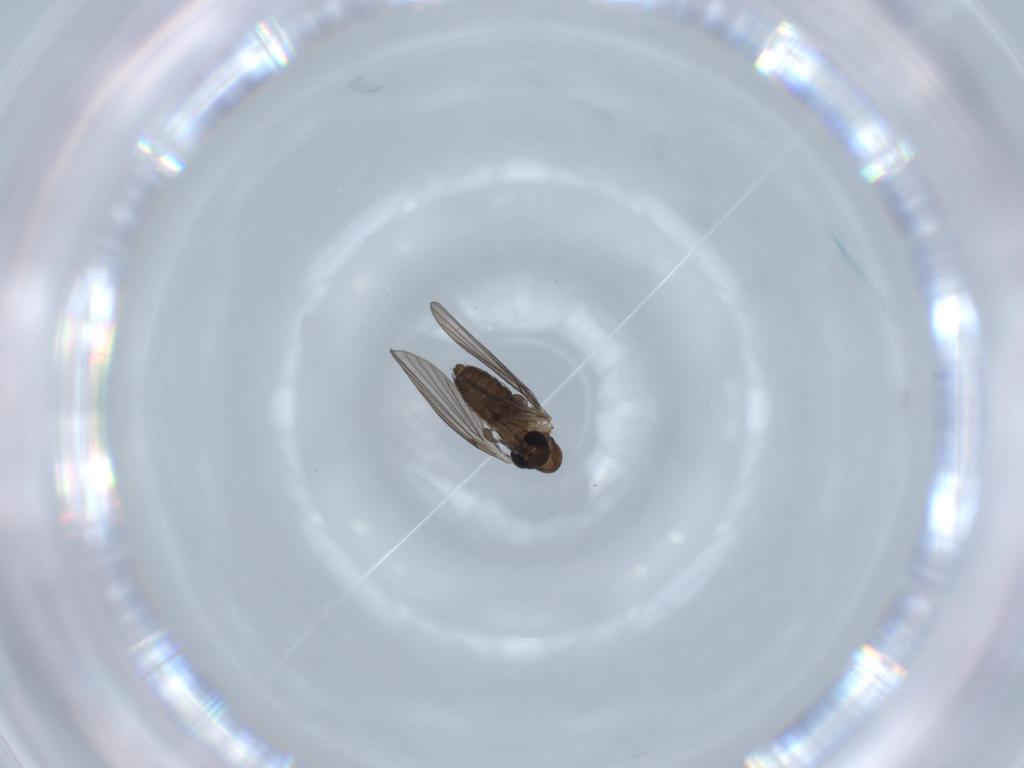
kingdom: Animalia
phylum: Arthropoda
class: Insecta
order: Diptera
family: Psychodidae
